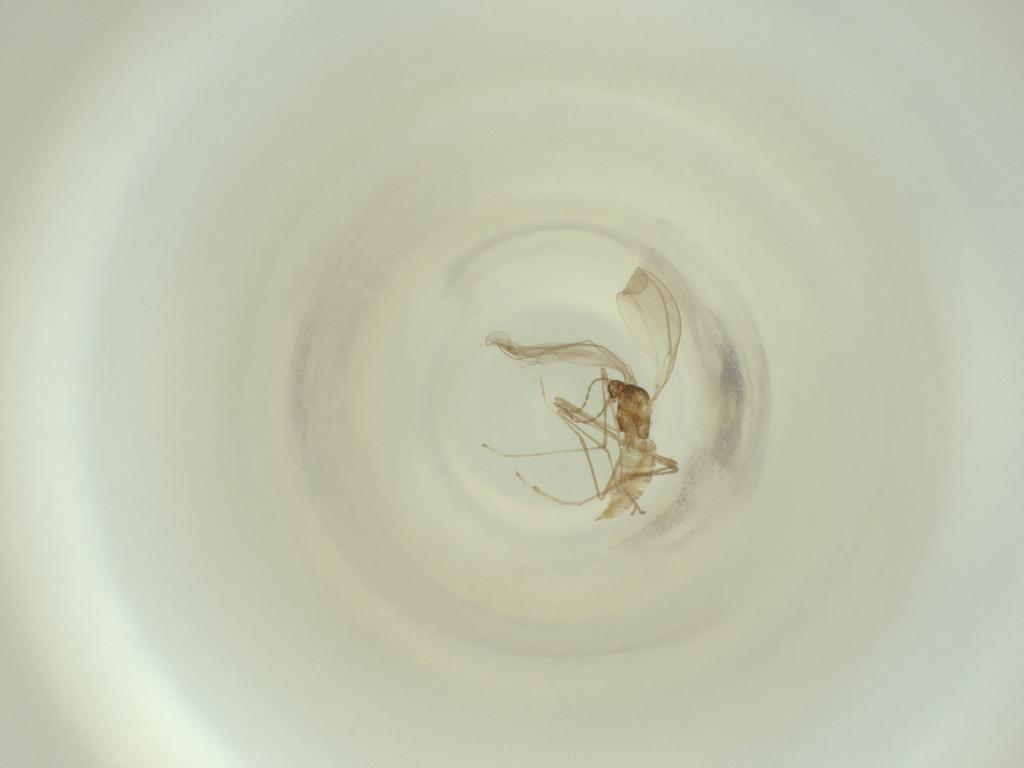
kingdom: Animalia
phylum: Arthropoda
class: Insecta
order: Diptera
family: Cecidomyiidae
